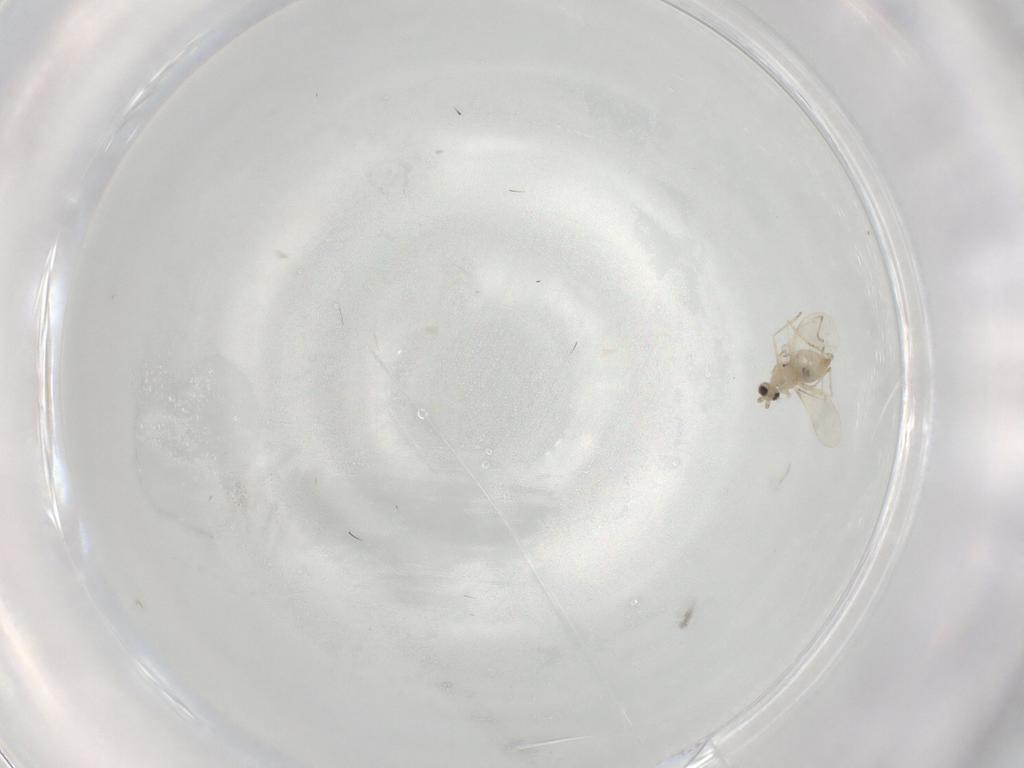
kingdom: Animalia
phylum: Arthropoda
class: Insecta
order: Diptera
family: Cecidomyiidae
